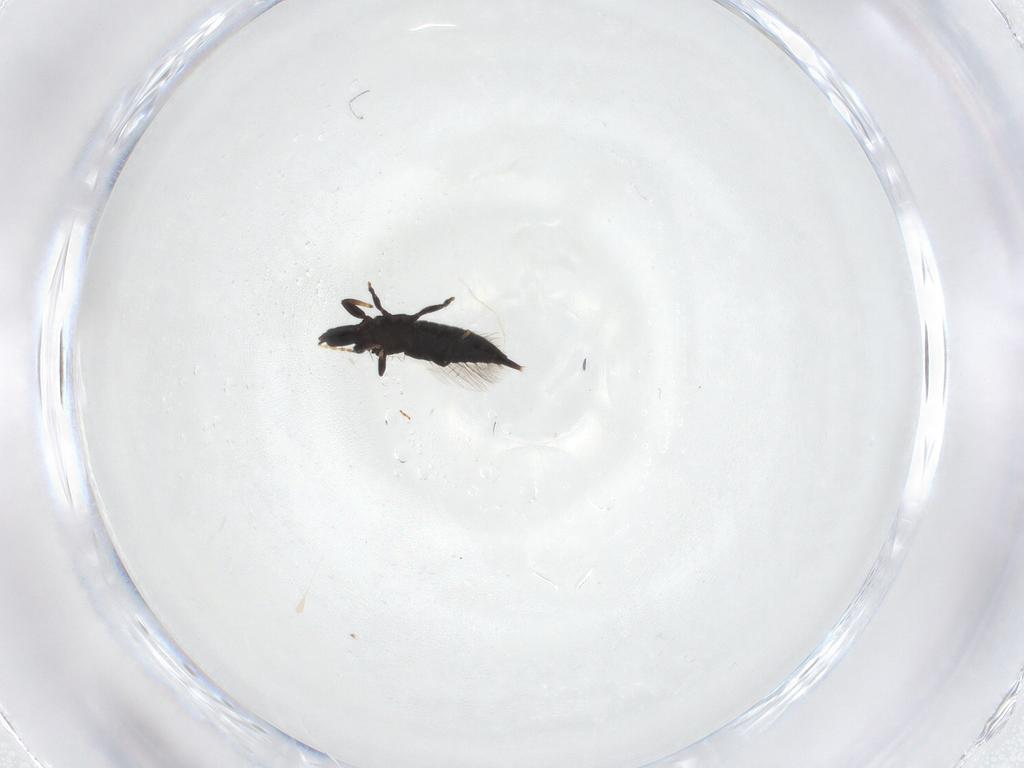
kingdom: Animalia
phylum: Arthropoda
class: Insecta
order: Thysanoptera
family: Phlaeothripidae
